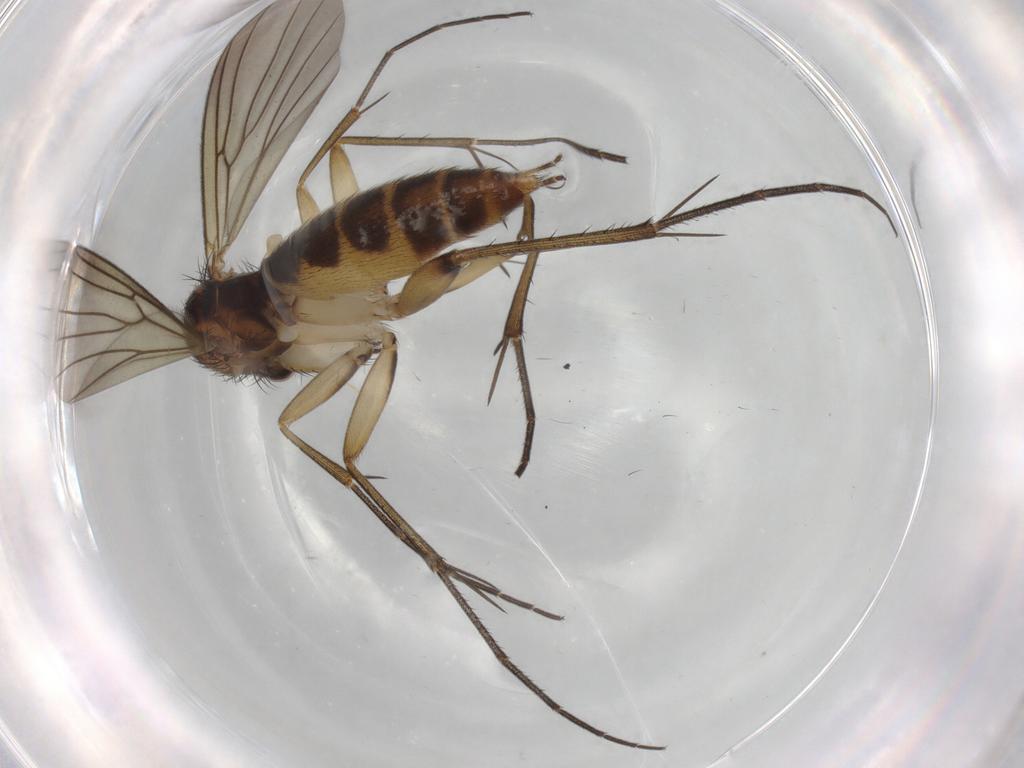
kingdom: Animalia
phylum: Arthropoda
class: Insecta
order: Diptera
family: Mycetophilidae
